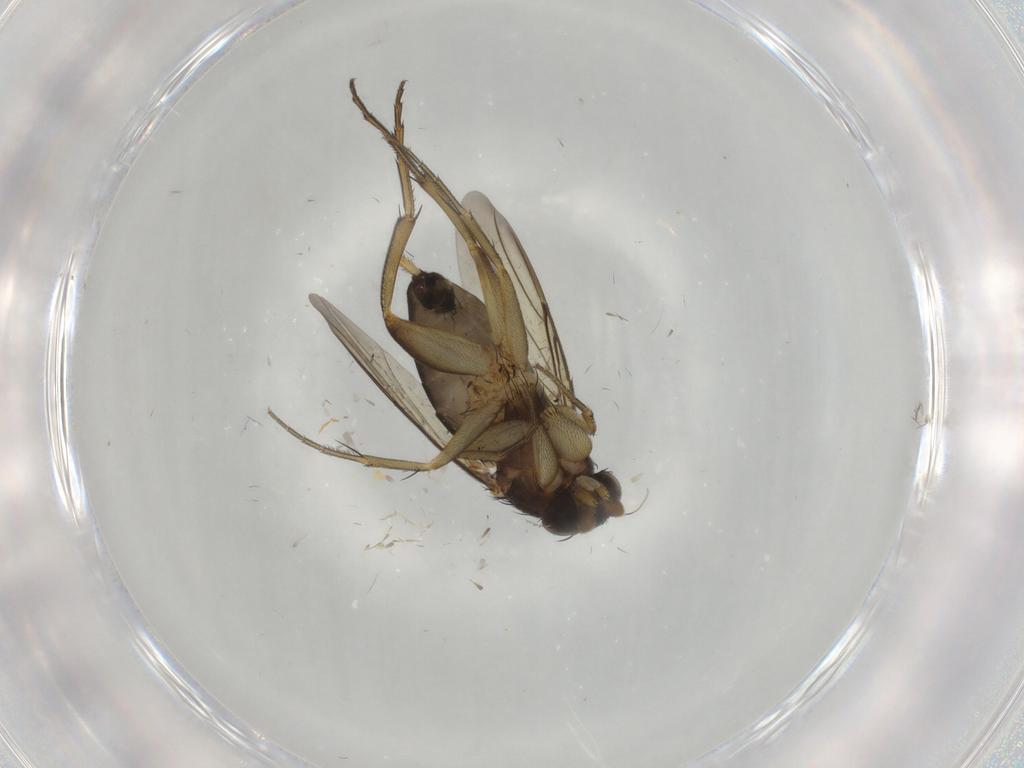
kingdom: Animalia
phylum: Arthropoda
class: Insecta
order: Diptera
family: Phoridae
